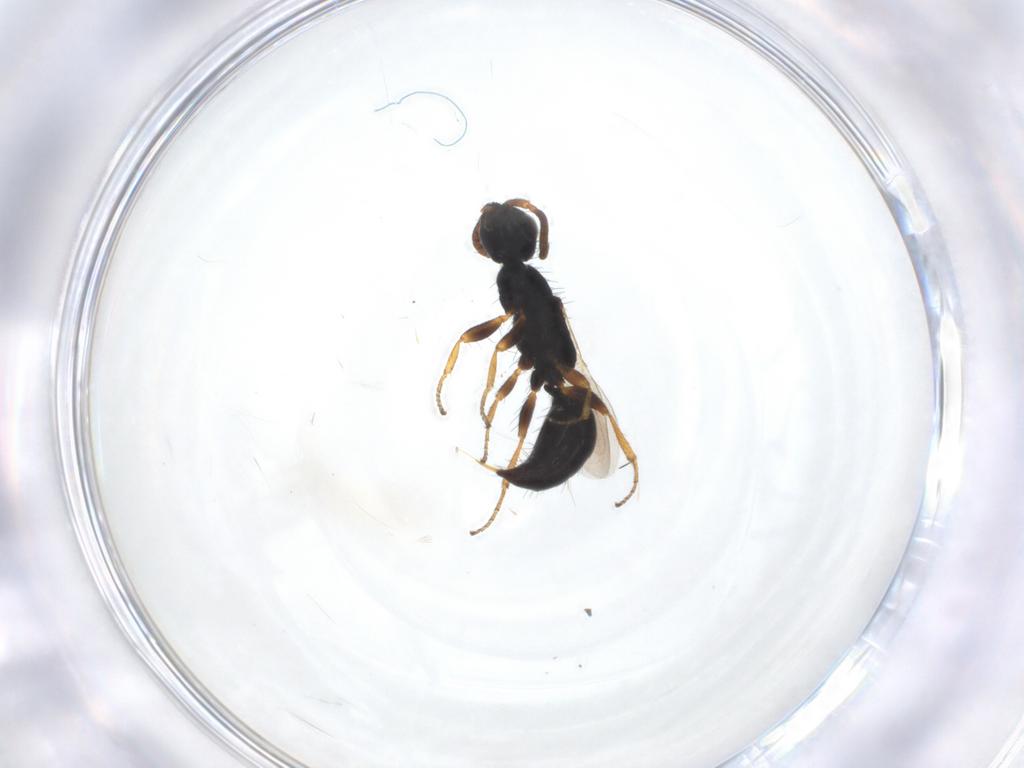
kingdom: Animalia
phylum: Arthropoda
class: Insecta
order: Hymenoptera
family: Bethylidae
